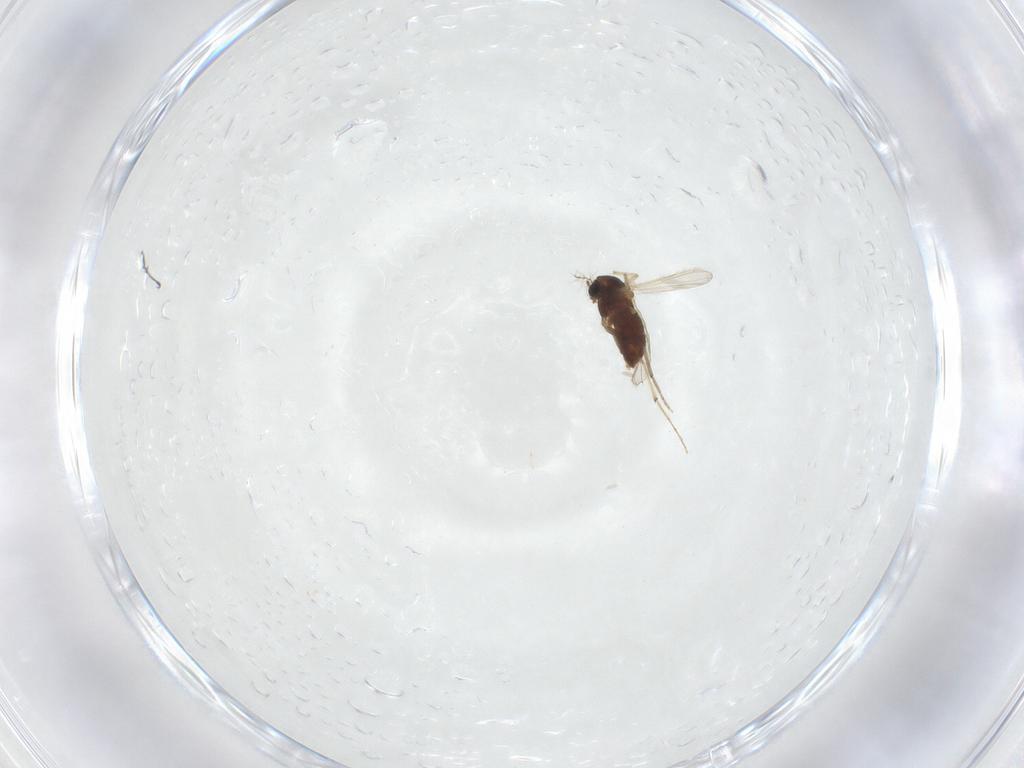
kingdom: Animalia
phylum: Arthropoda
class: Insecta
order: Diptera
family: Chironomidae
